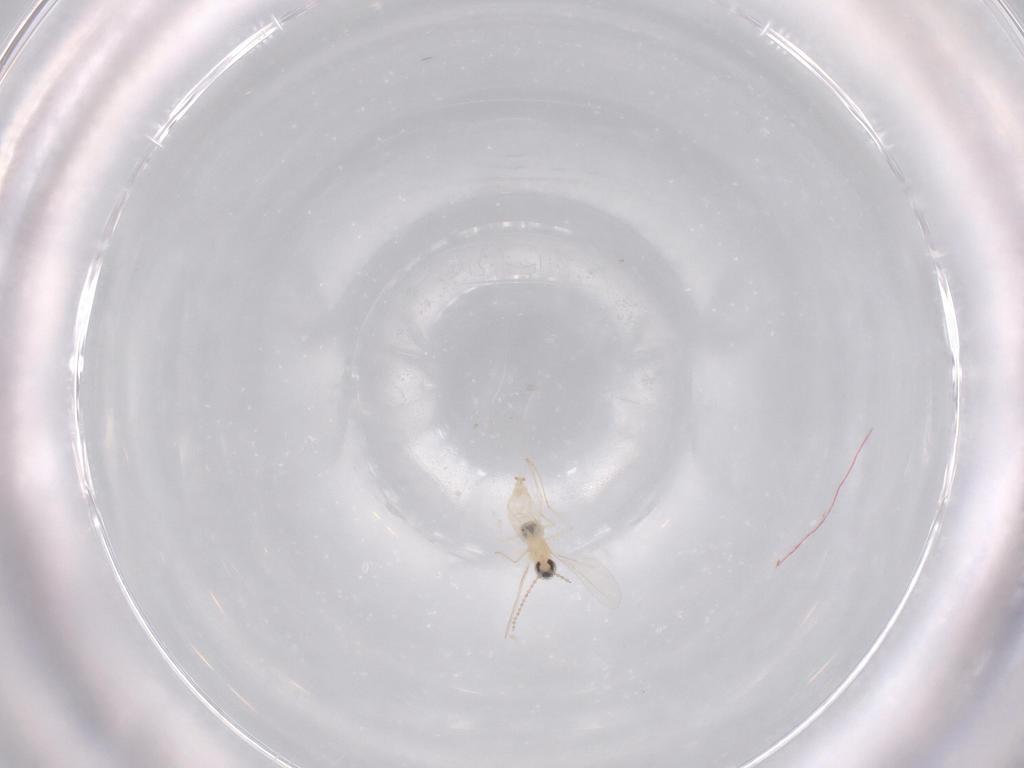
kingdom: Animalia
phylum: Arthropoda
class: Insecta
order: Diptera
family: Cecidomyiidae
